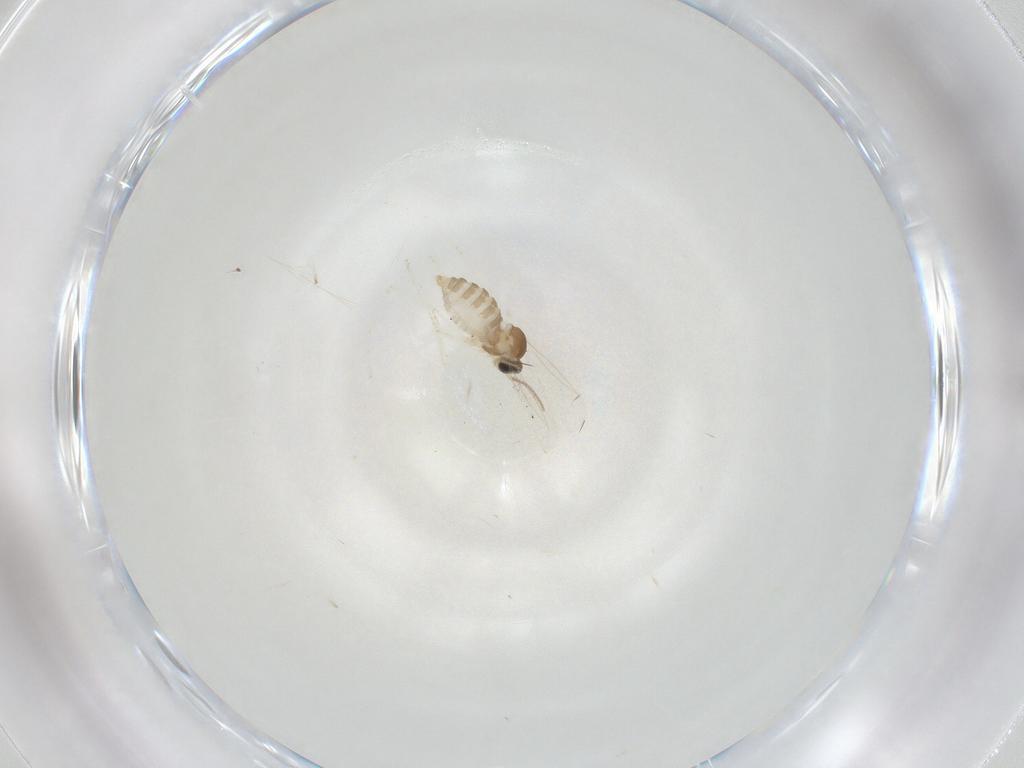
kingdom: Animalia
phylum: Arthropoda
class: Insecta
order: Diptera
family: Cecidomyiidae
